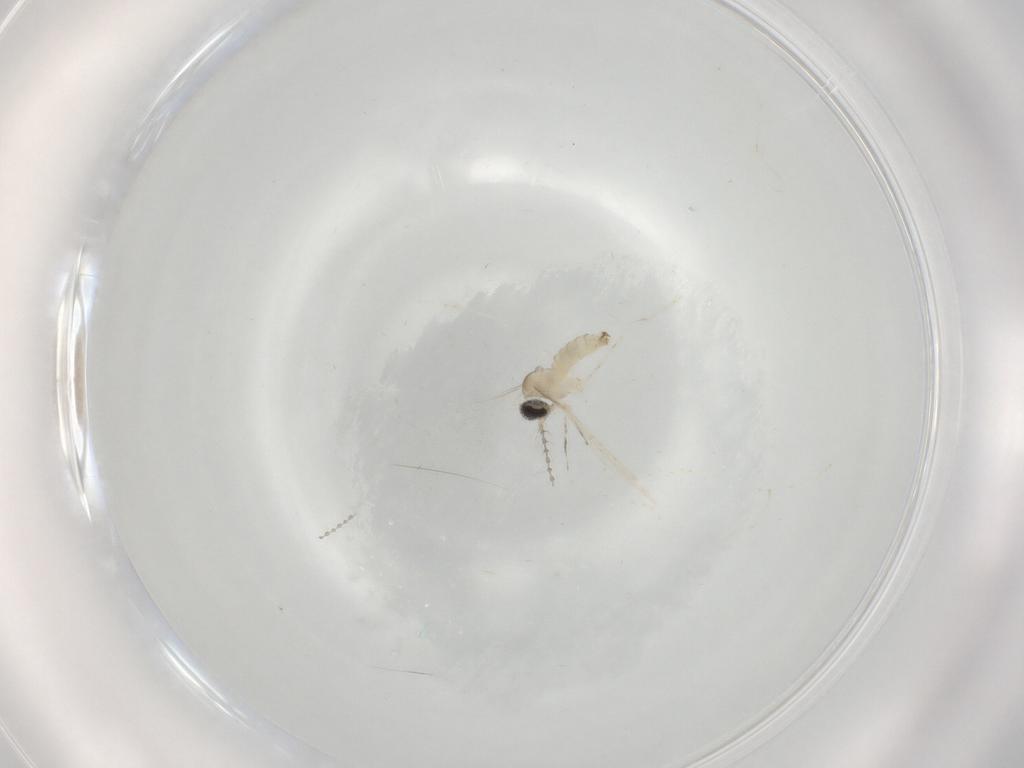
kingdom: Animalia
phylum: Arthropoda
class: Insecta
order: Diptera
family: Cecidomyiidae
